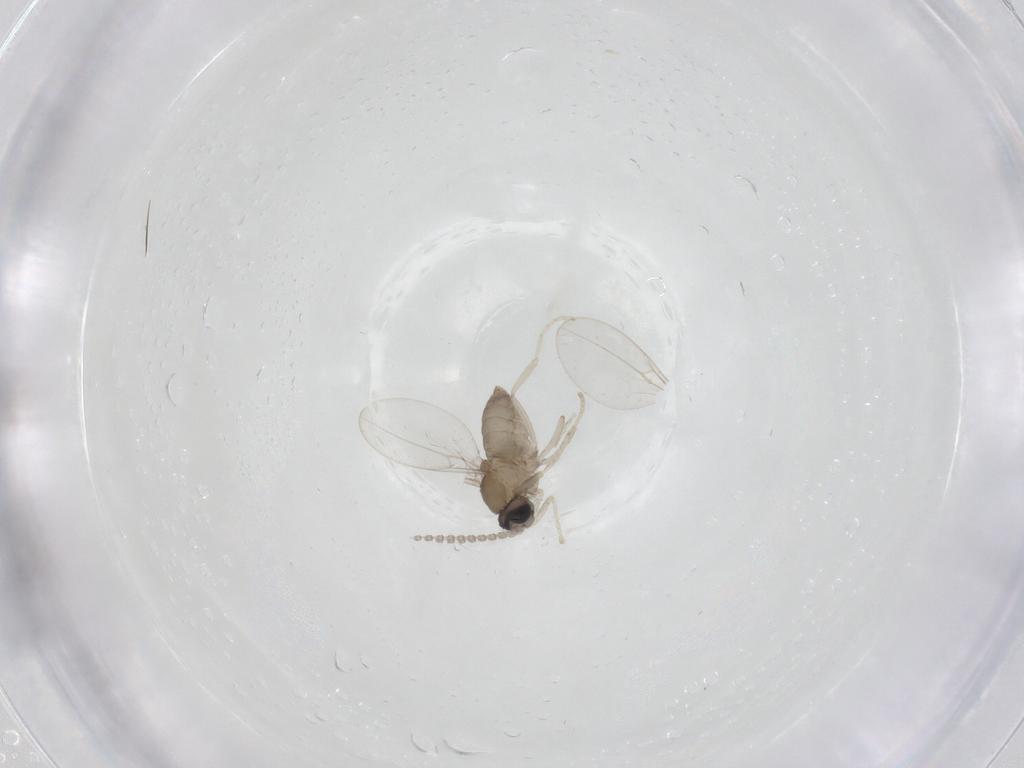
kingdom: Animalia
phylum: Arthropoda
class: Insecta
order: Diptera
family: Cecidomyiidae
